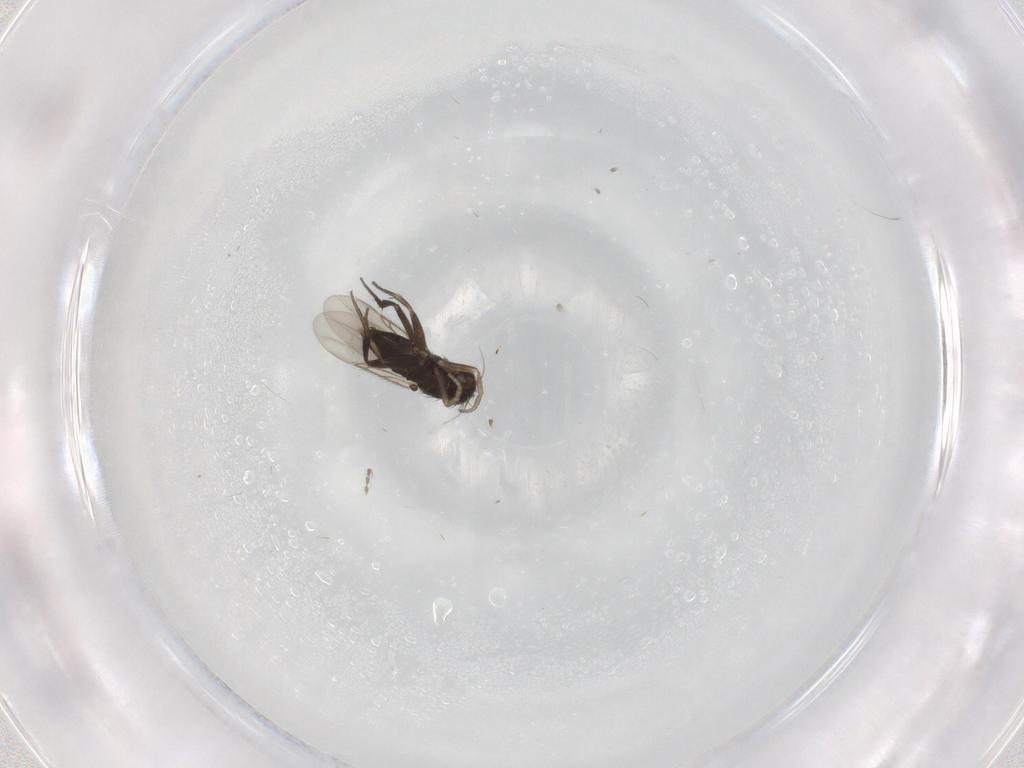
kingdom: Animalia
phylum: Arthropoda
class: Insecta
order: Diptera
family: Phoridae
